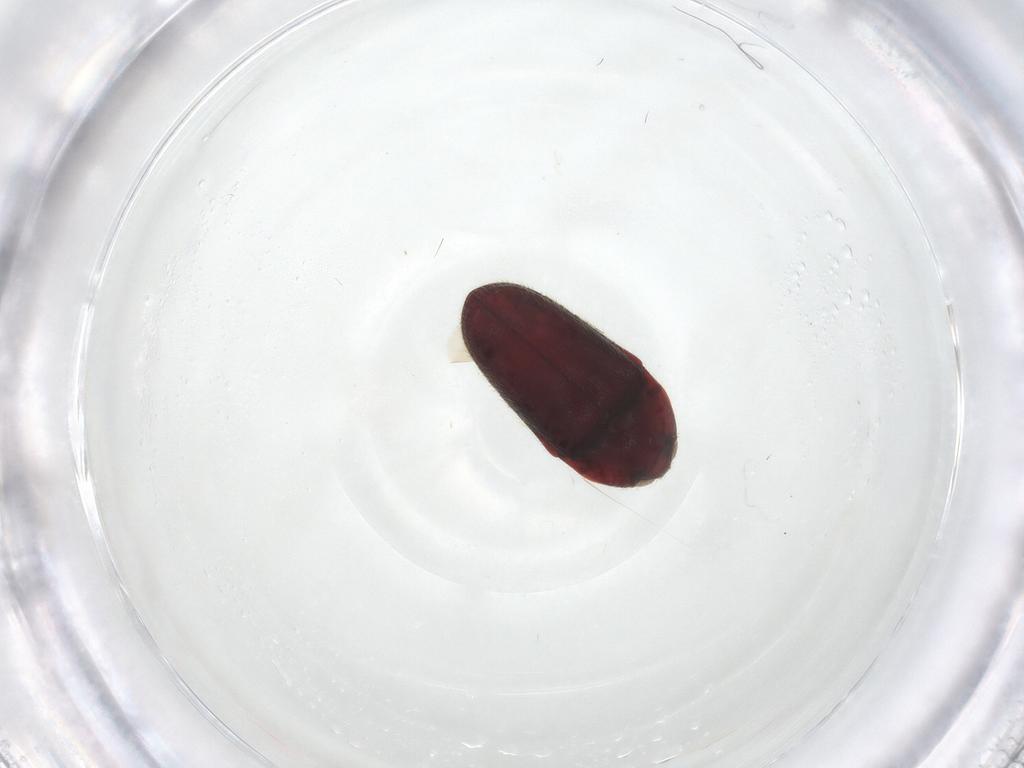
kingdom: Animalia
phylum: Arthropoda
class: Insecta
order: Coleoptera
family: Throscidae
